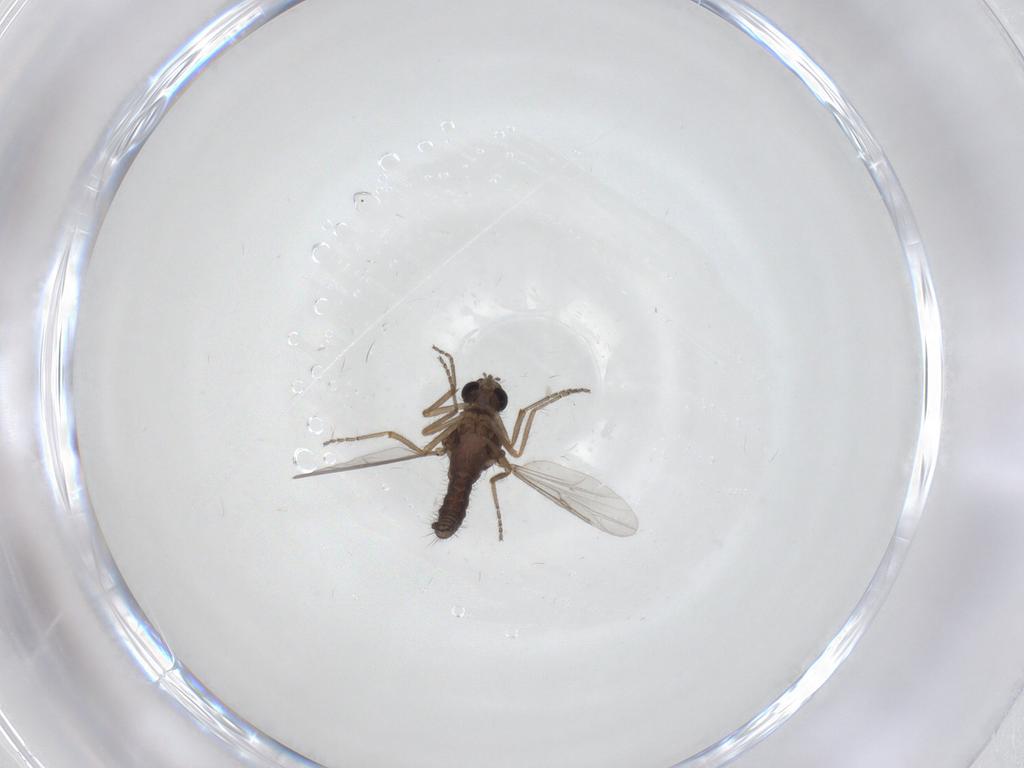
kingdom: Animalia
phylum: Arthropoda
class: Insecta
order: Diptera
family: Ceratopogonidae
